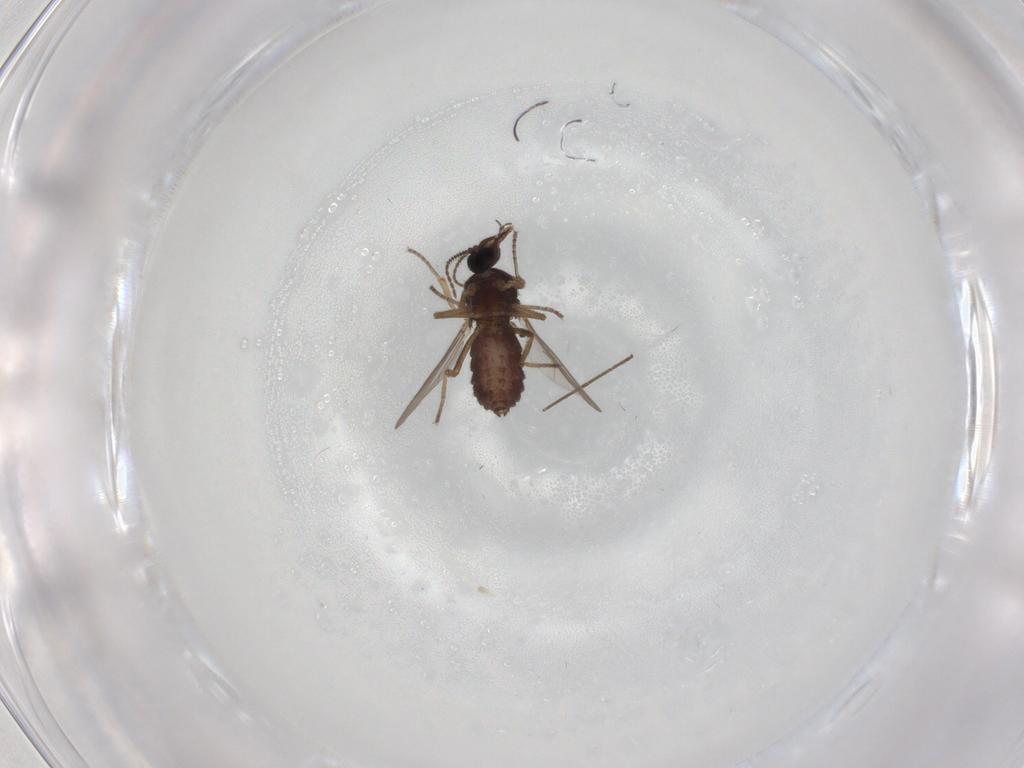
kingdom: Animalia
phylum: Arthropoda
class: Insecta
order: Diptera
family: Ceratopogonidae
